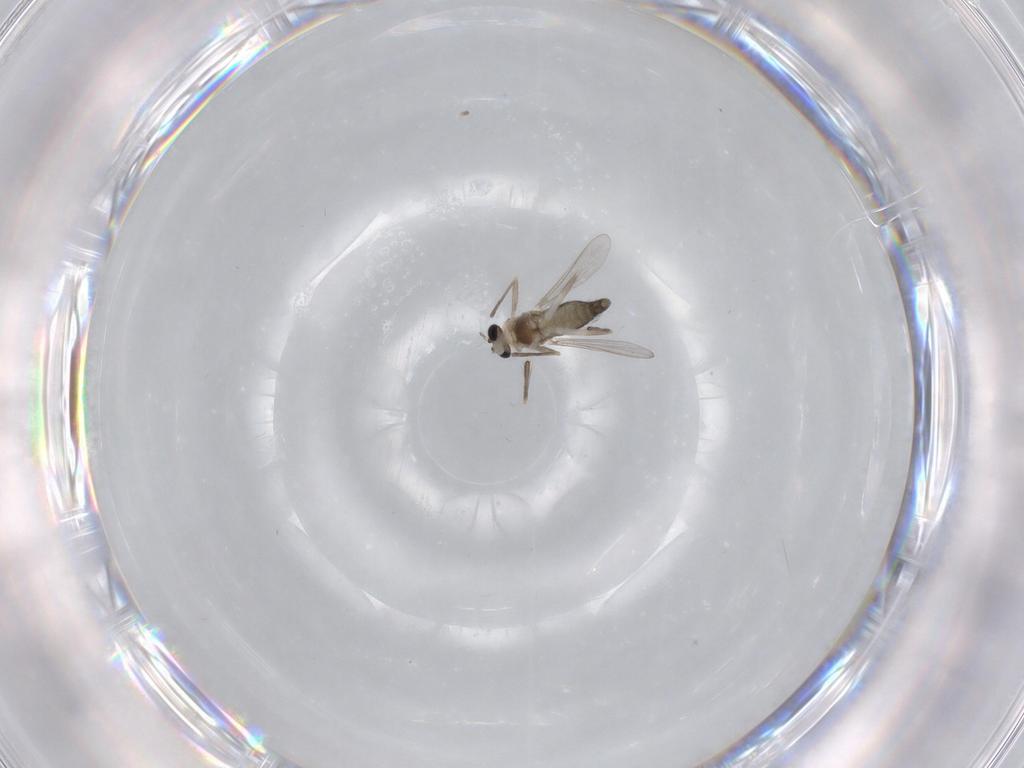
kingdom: Animalia
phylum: Arthropoda
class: Insecta
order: Diptera
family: Chironomidae
